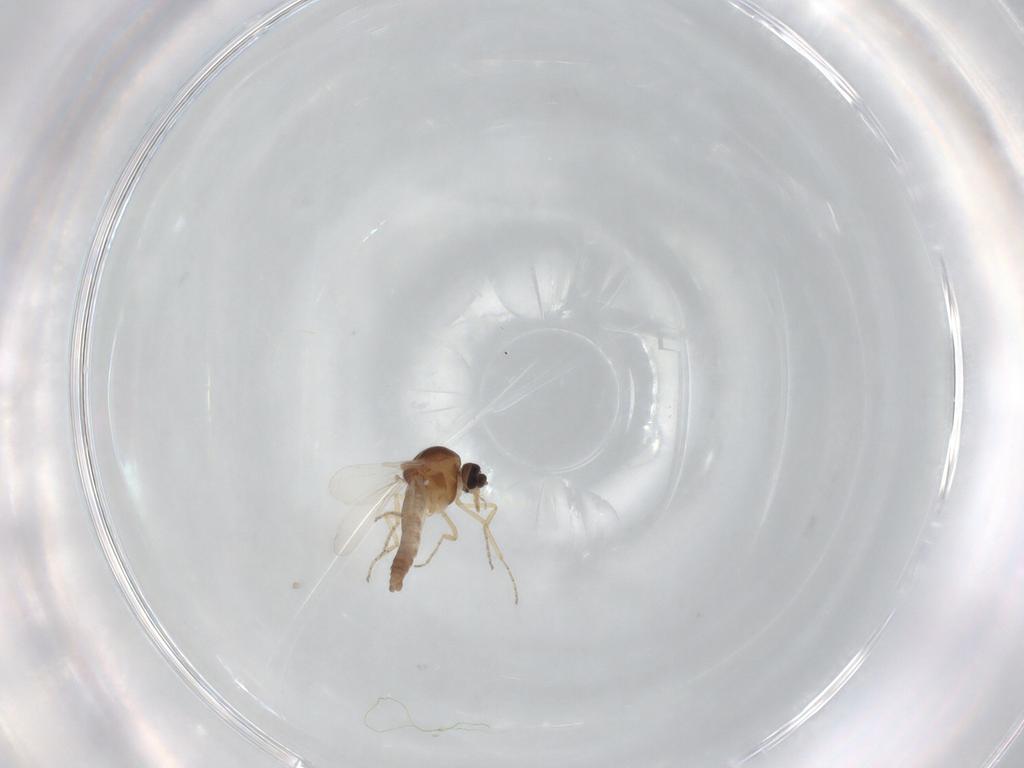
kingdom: Animalia
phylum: Arthropoda
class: Insecta
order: Diptera
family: Ceratopogonidae
